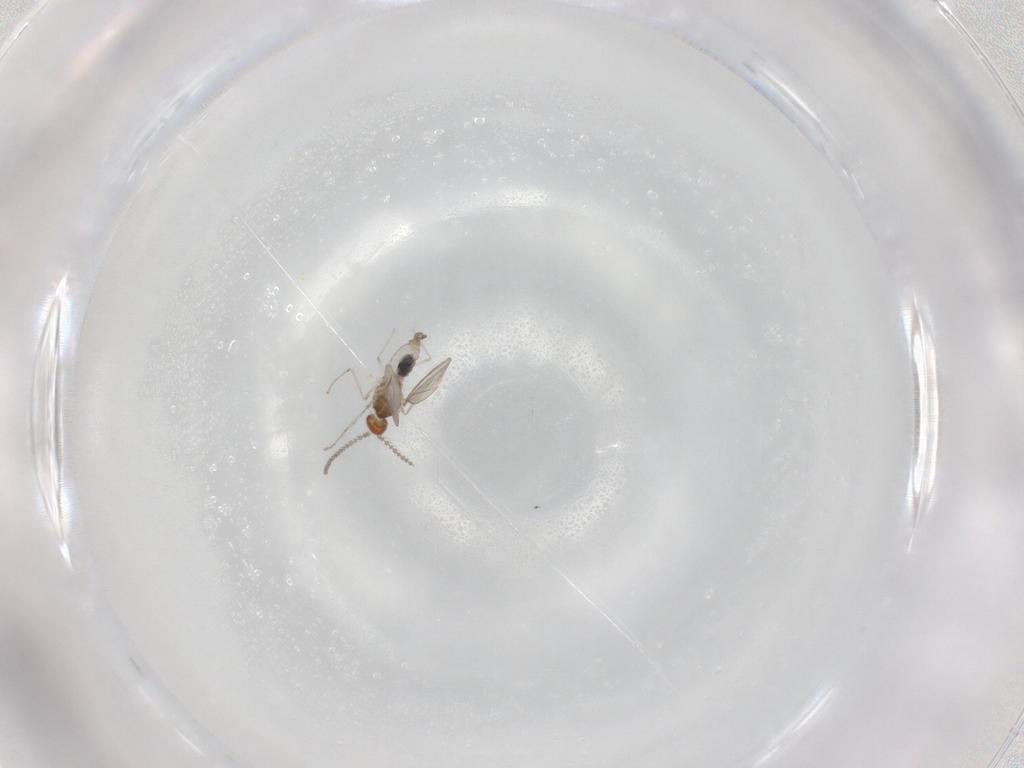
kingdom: Animalia
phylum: Arthropoda
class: Insecta
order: Diptera
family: Cecidomyiidae
